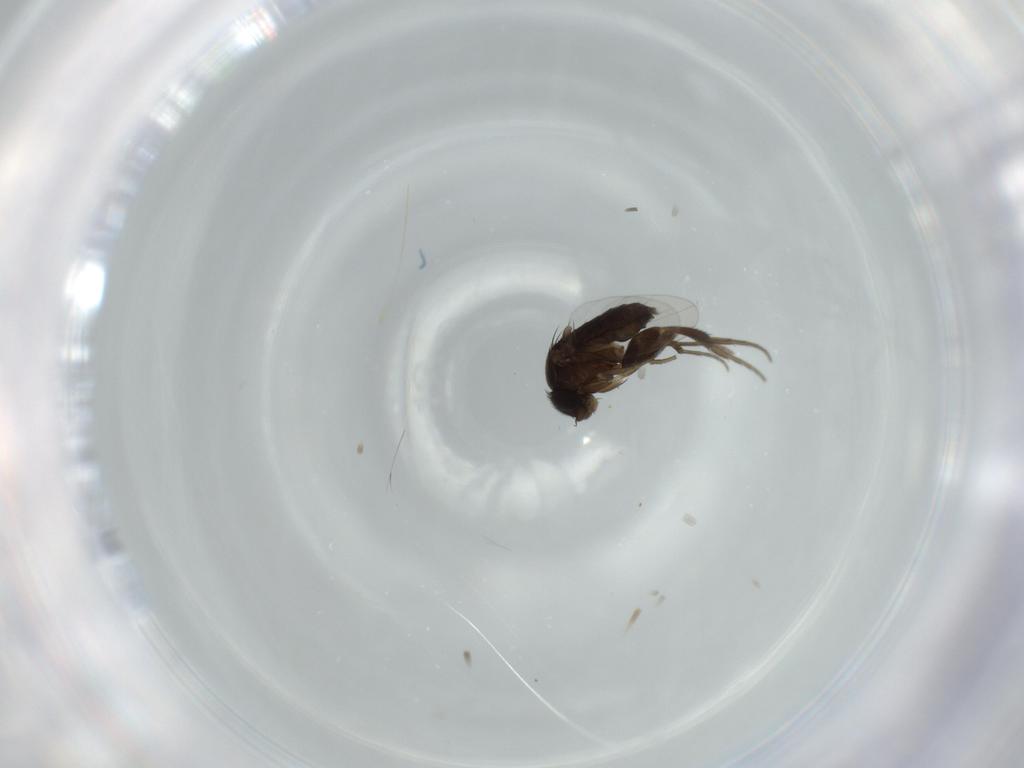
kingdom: Animalia
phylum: Arthropoda
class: Insecta
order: Diptera
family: Phoridae
